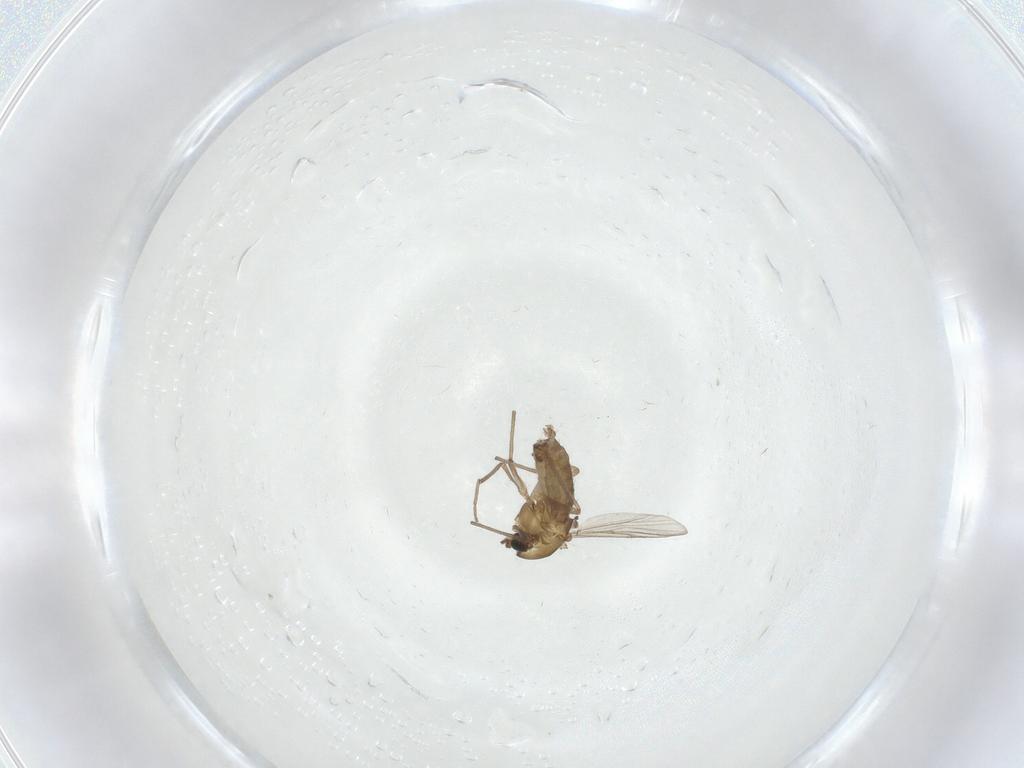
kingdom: Animalia
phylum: Arthropoda
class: Insecta
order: Diptera
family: Chironomidae
